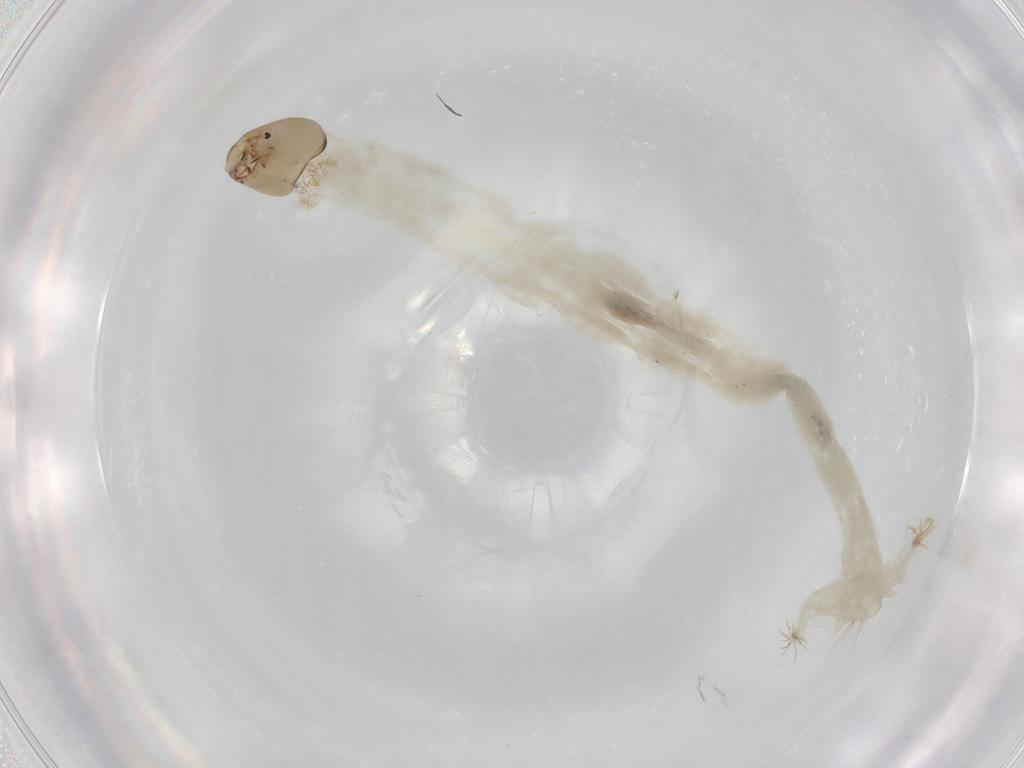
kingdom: Animalia
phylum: Arthropoda
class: Insecta
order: Diptera
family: Chironomidae
